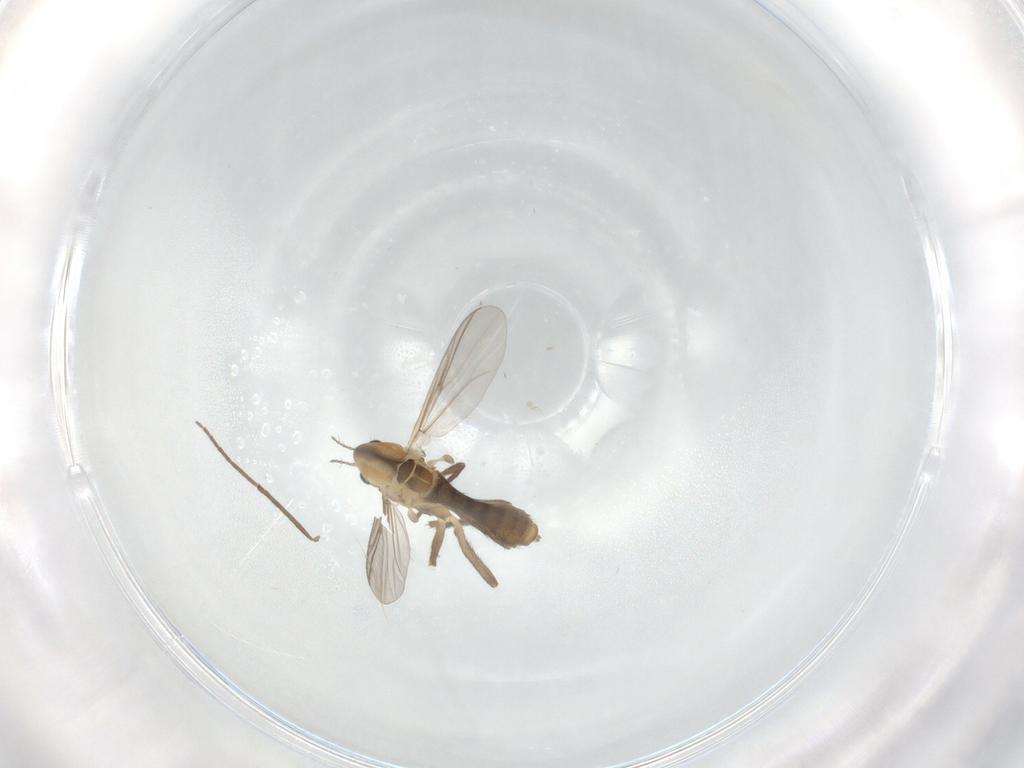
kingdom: Animalia
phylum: Arthropoda
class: Insecta
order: Diptera
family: Chironomidae
